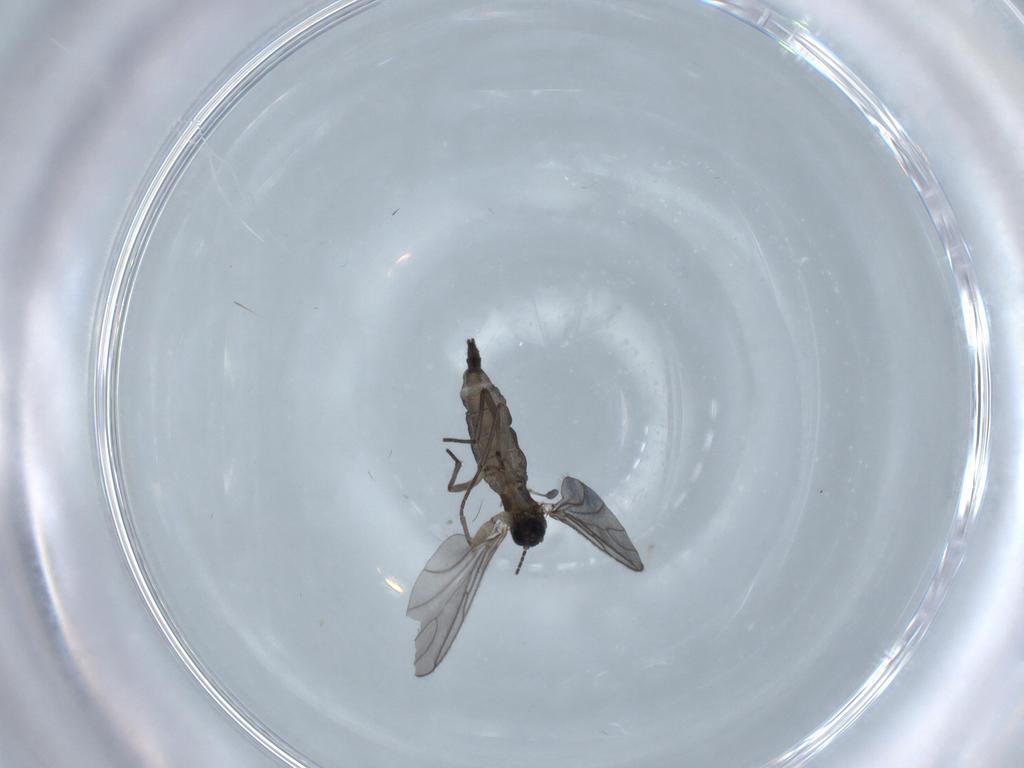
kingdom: Animalia
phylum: Arthropoda
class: Insecta
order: Diptera
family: Sciaridae
